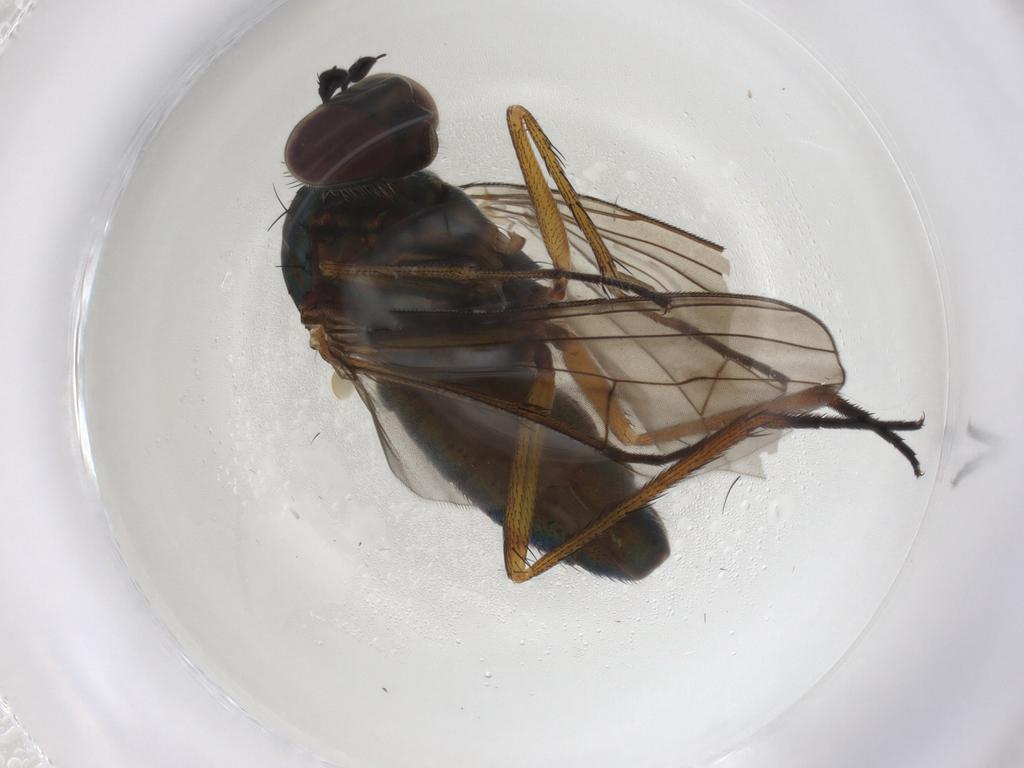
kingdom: Animalia
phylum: Arthropoda
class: Insecta
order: Diptera
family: Dolichopodidae
